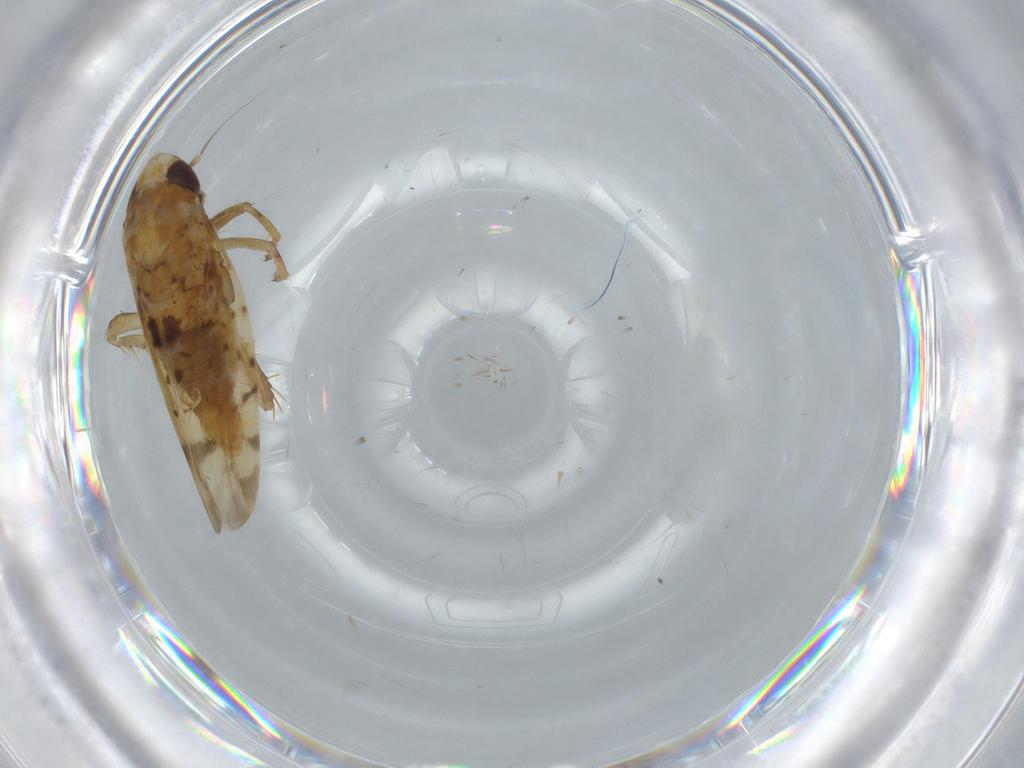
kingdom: Animalia
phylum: Arthropoda
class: Insecta
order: Hemiptera
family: Cicadellidae
